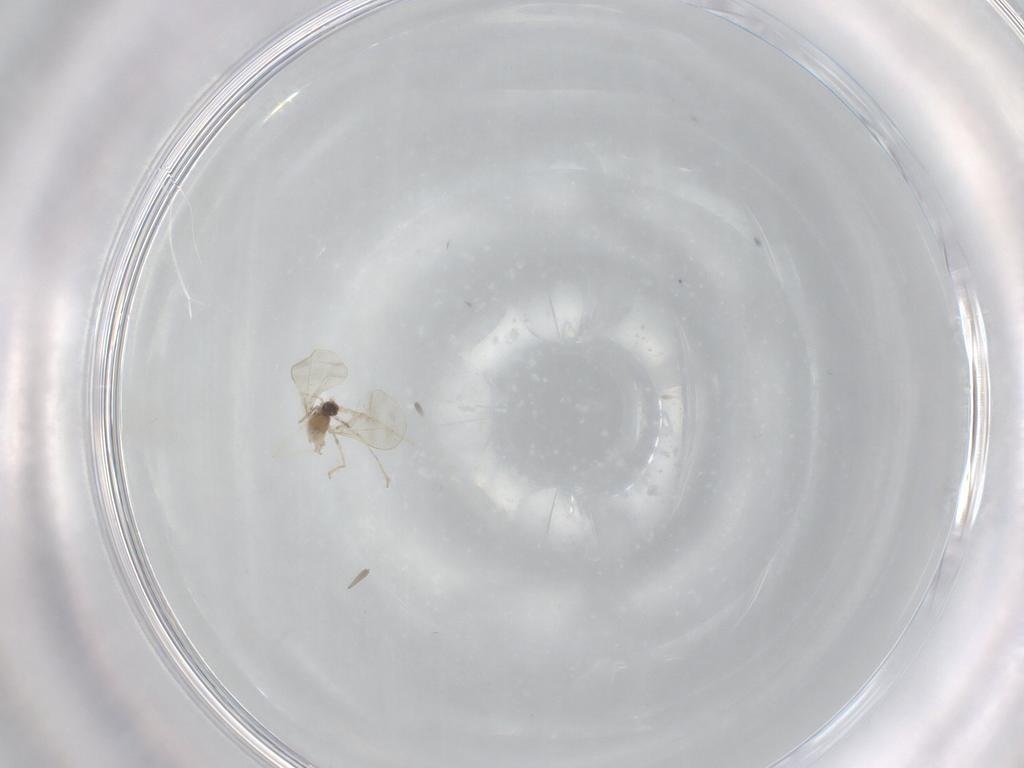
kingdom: Animalia
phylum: Arthropoda
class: Insecta
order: Diptera
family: Cecidomyiidae
